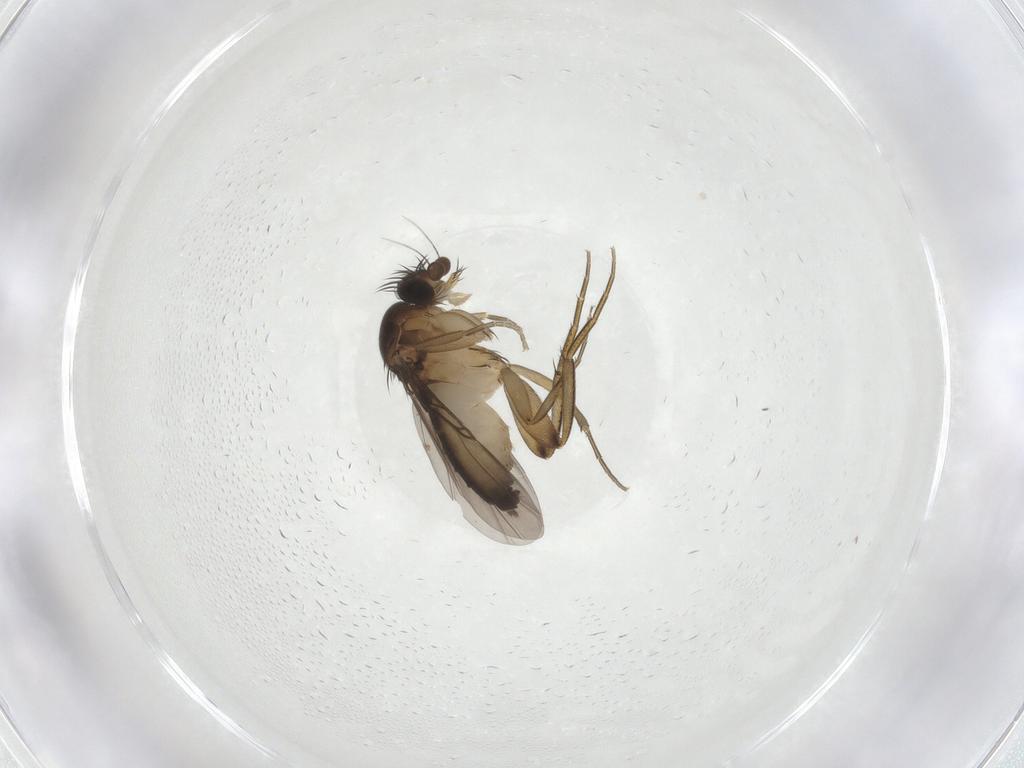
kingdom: Animalia
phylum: Arthropoda
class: Insecta
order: Diptera
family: Phoridae
